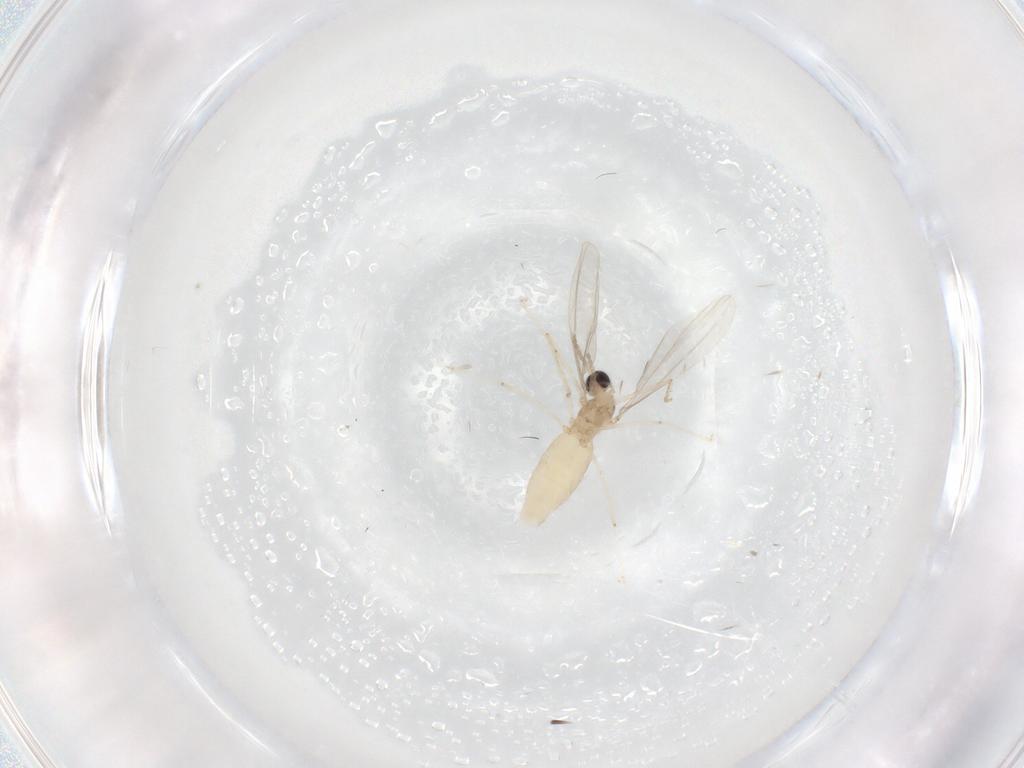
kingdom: Animalia
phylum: Arthropoda
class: Insecta
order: Diptera
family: Cecidomyiidae
